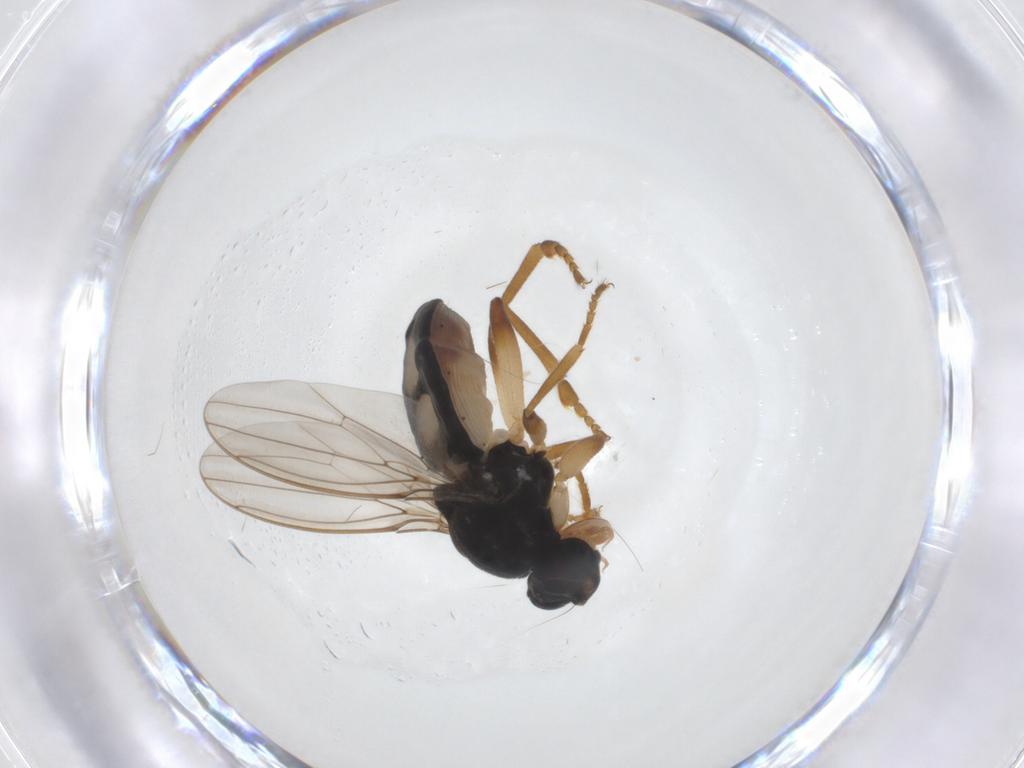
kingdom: Animalia
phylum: Arthropoda
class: Insecta
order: Diptera
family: Sphaeroceridae
